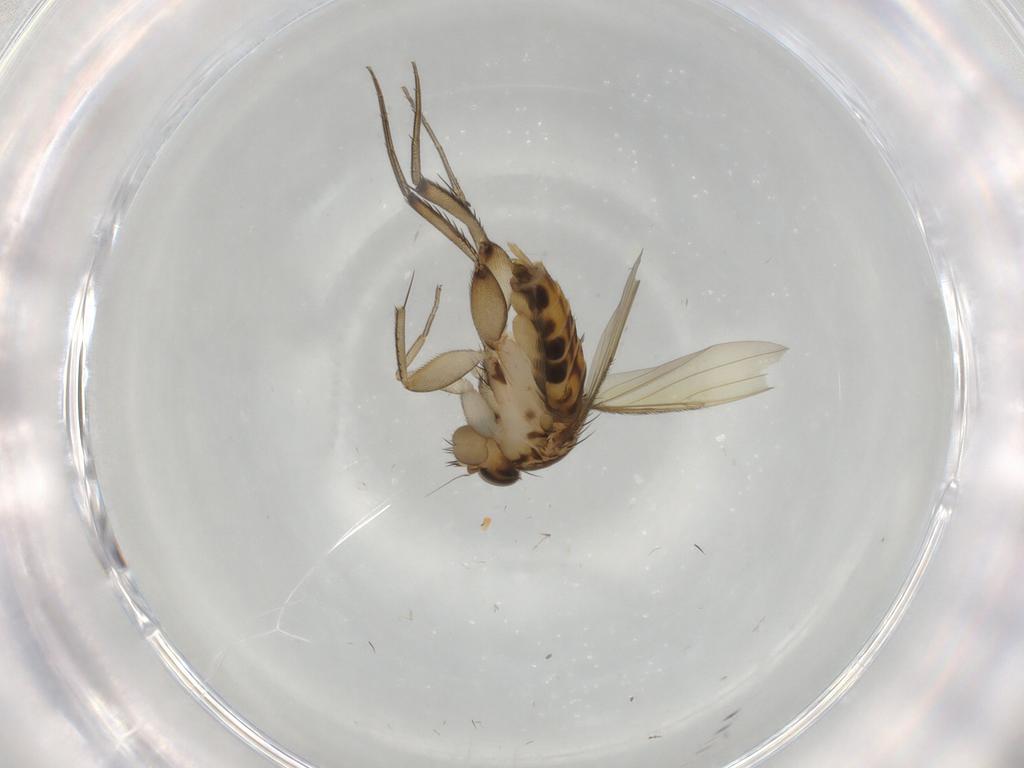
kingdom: Animalia
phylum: Arthropoda
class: Insecta
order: Diptera
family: Phoridae
